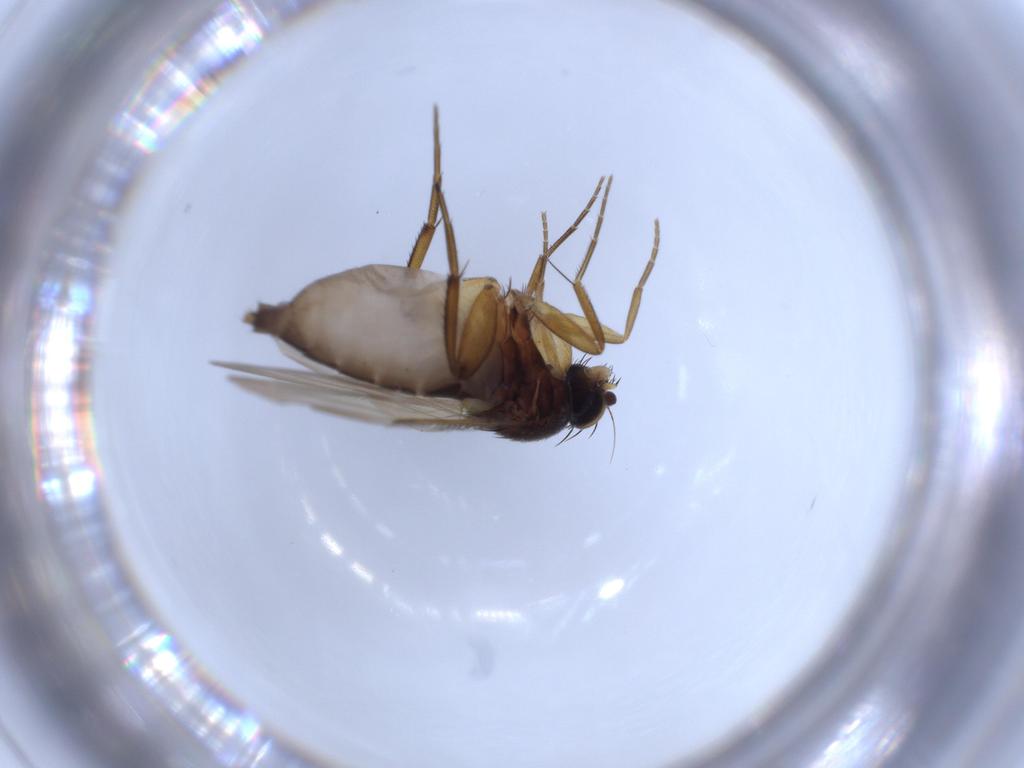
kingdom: Animalia
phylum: Arthropoda
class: Insecta
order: Diptera
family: Phoridae
